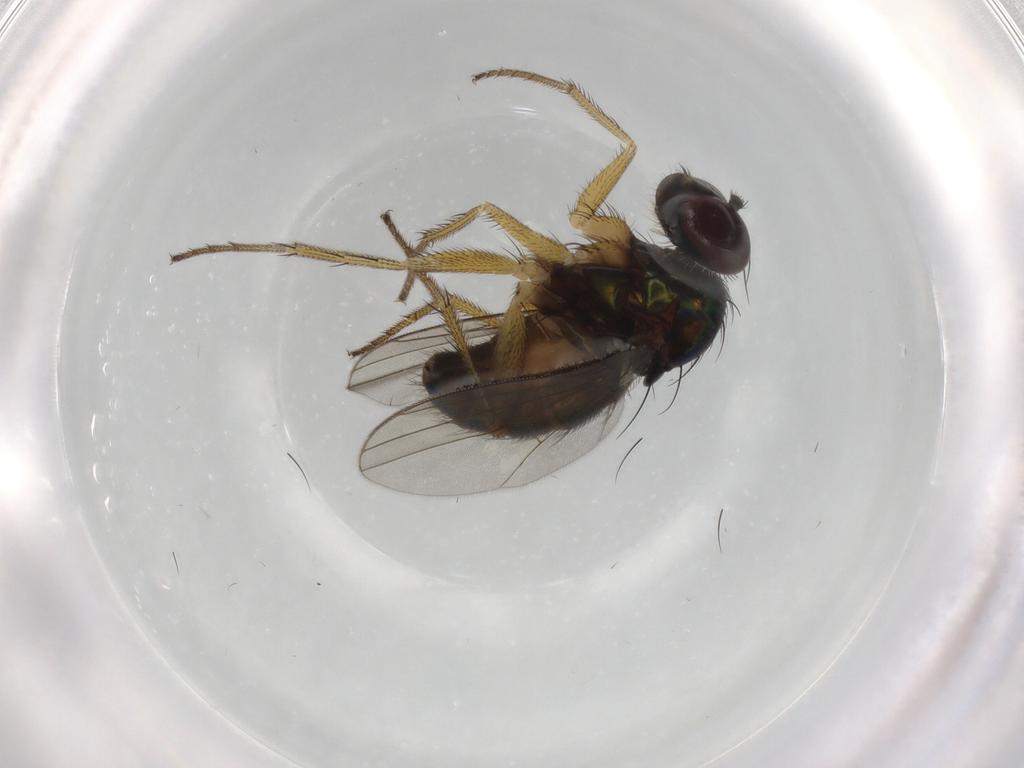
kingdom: Animalia
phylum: Arthropoda
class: Insecta
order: Diptera
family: Dolichopodidae
